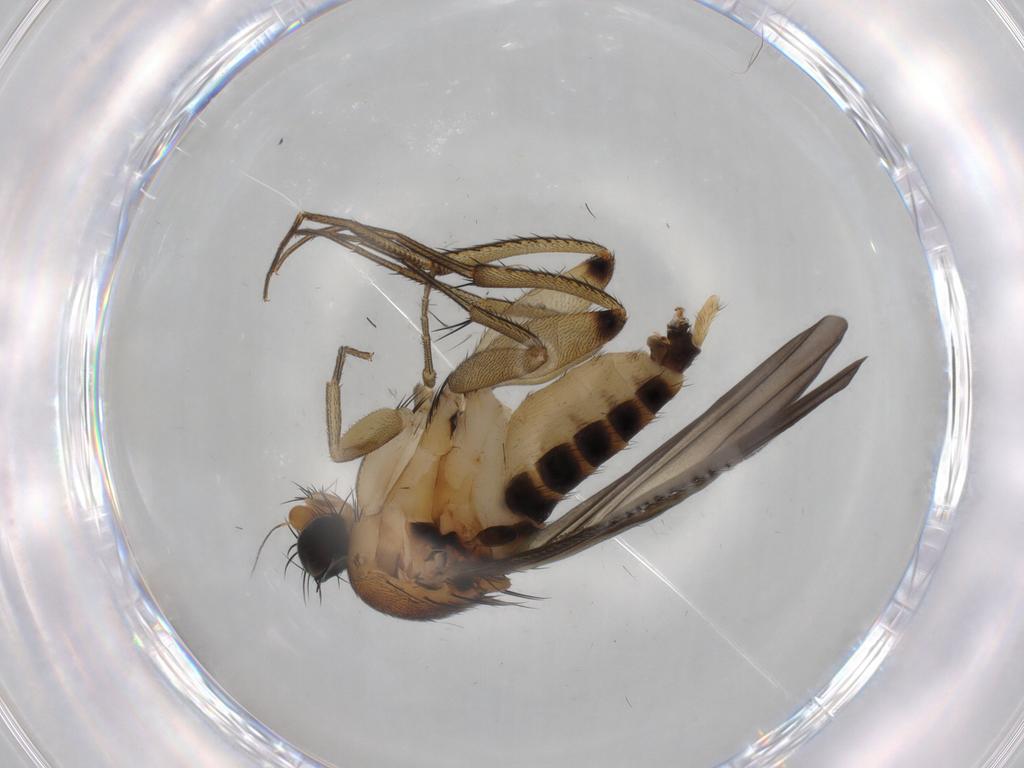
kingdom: Animalia
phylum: Arthropoda
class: Insecta
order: Diptera
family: Sciaridae
